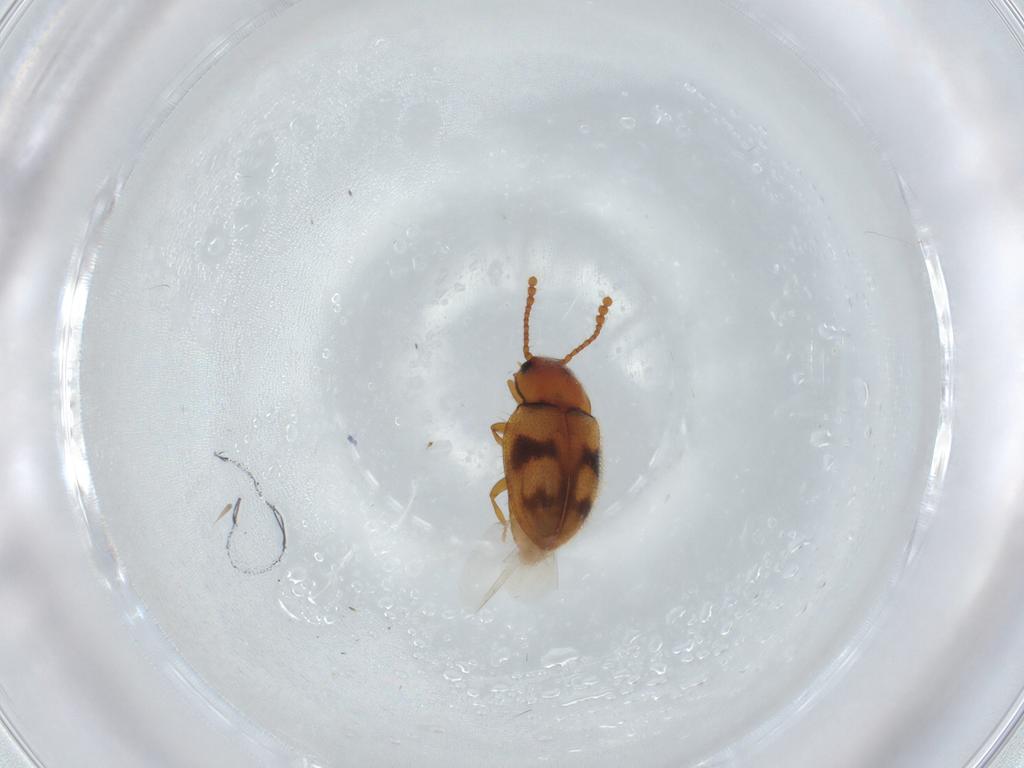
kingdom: Animalia
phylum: Arthropoda
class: Insecta
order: Coleoptera
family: Erotylidae
